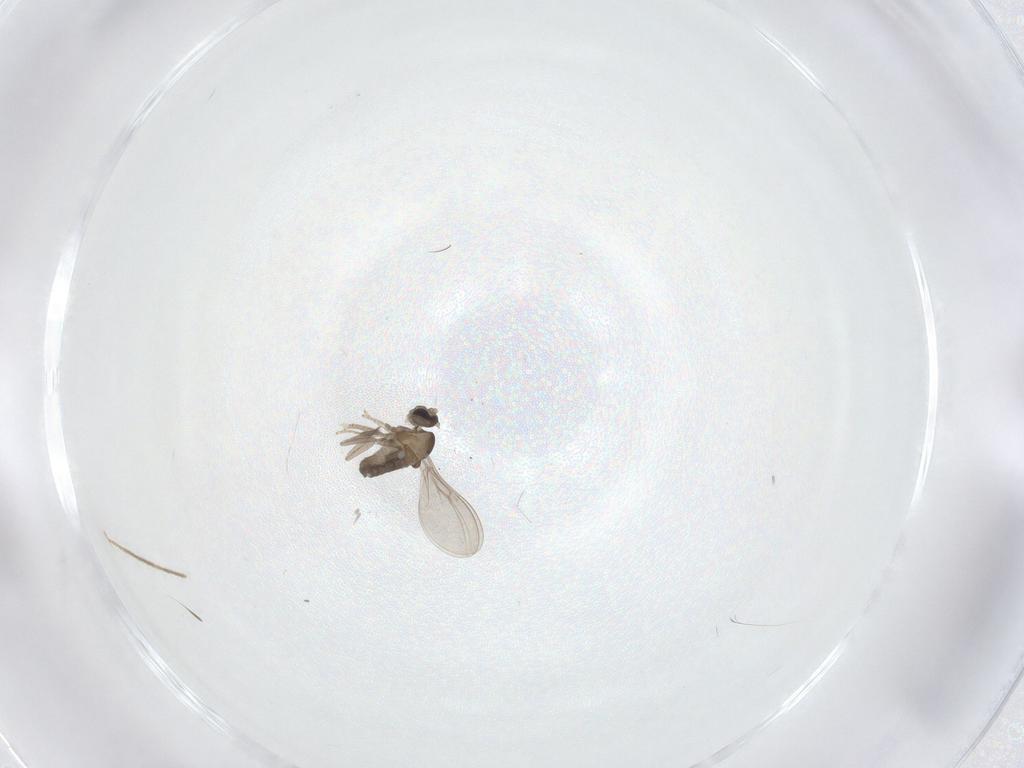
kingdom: Animalia
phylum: Arthropoda
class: Insecta
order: Diptera
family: Cecidomyiidae
